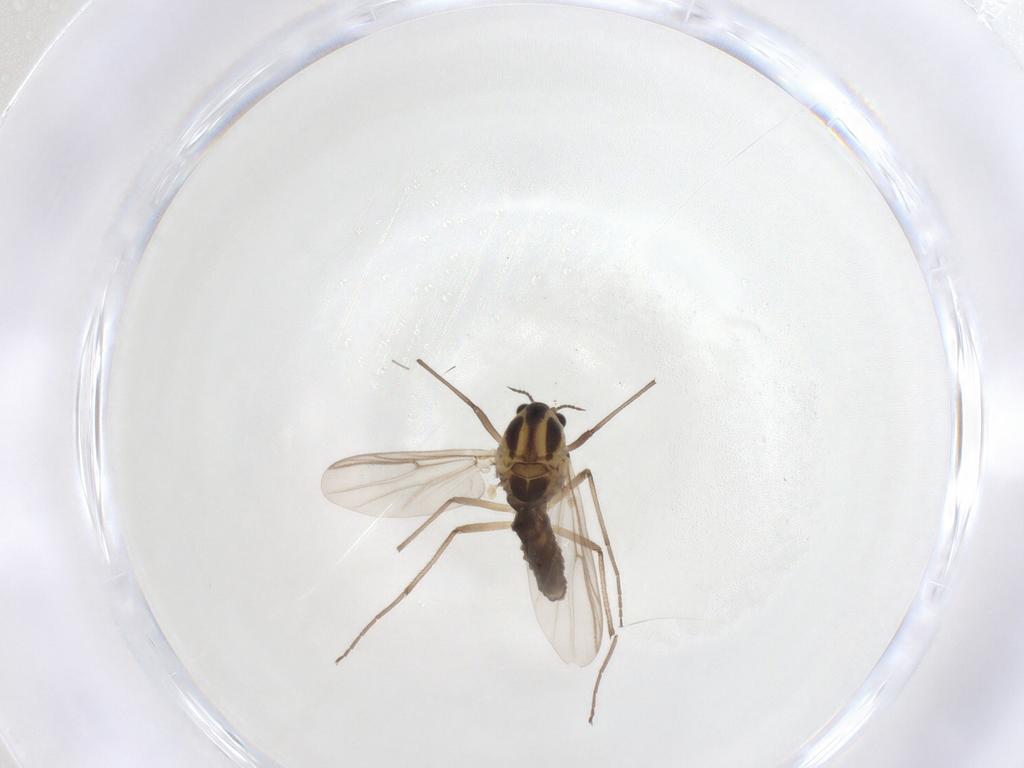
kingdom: Animalia
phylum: Arthropoda
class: Insecta
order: Diptera
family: Chironomidae
